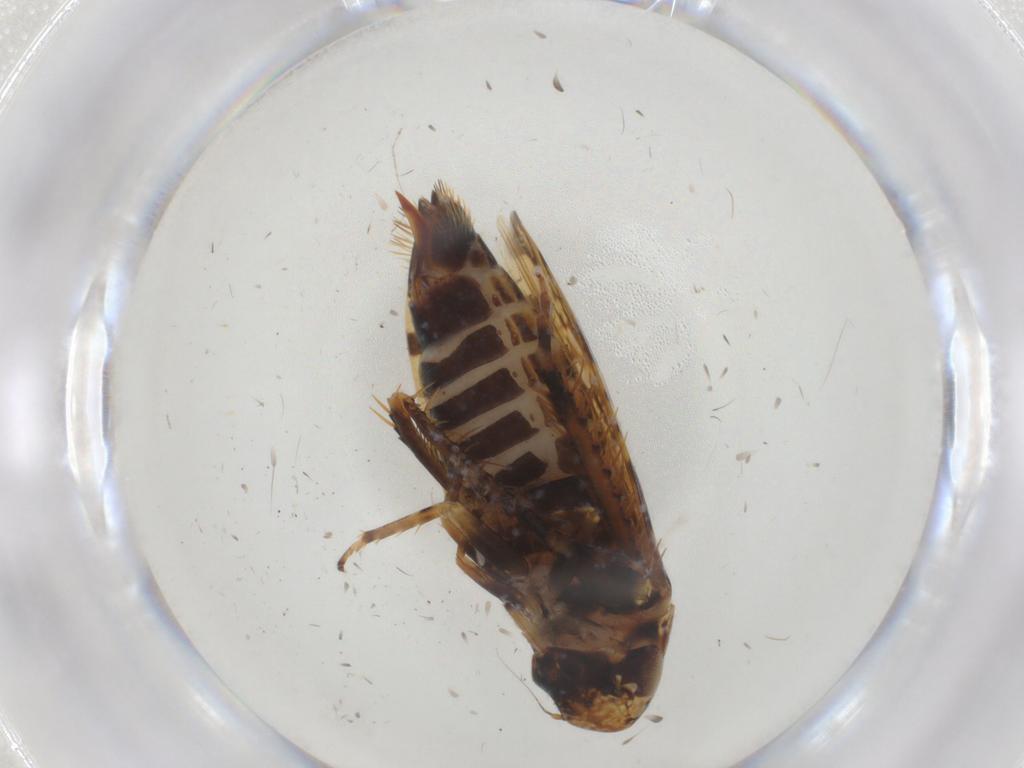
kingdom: Animalia
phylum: Arthropoda
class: Insecta
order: Hemiptera
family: Cicadellidae
